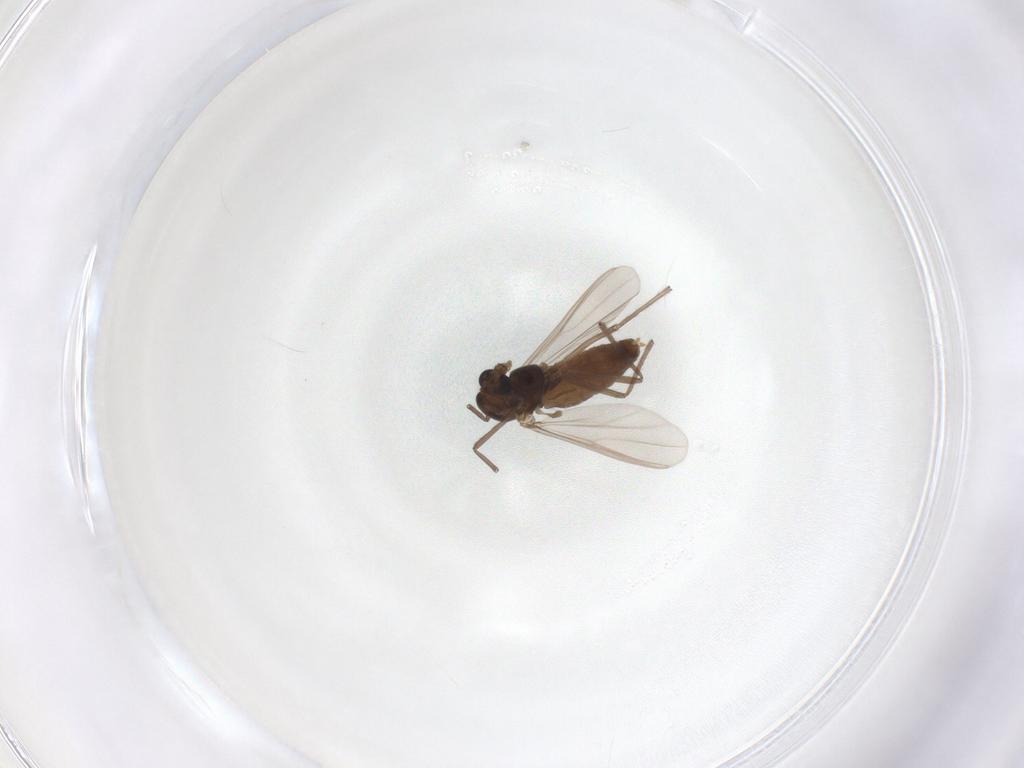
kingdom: Animalia
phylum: Arthropoda
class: Insecta
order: Diptera
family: Chironomidae
